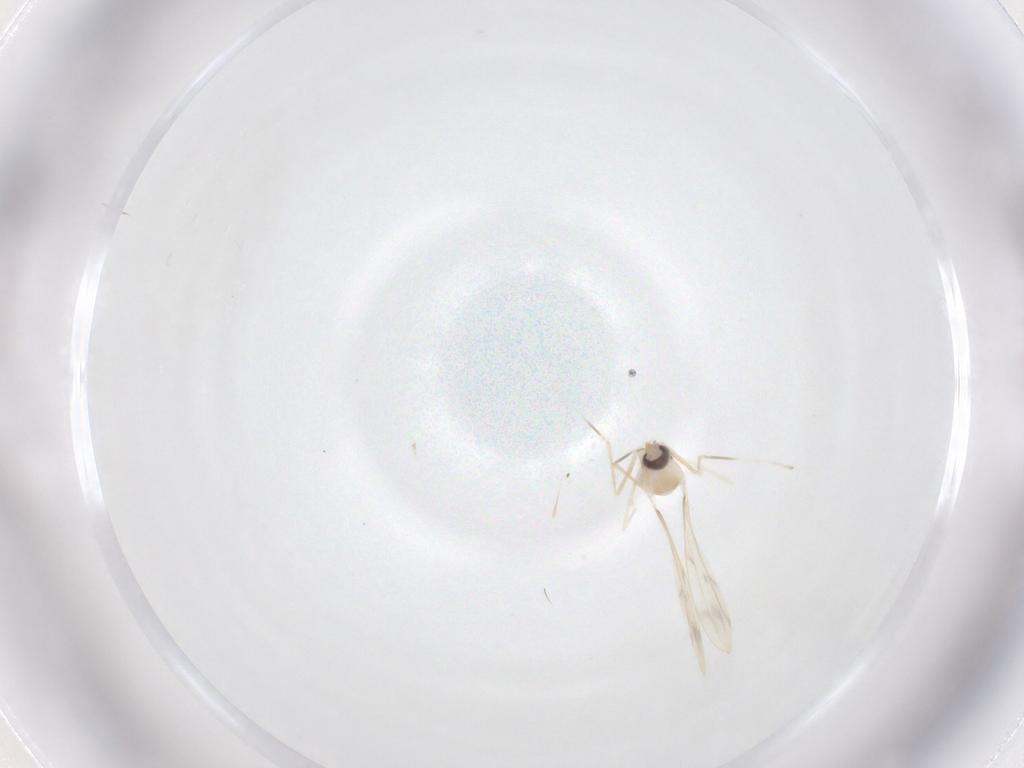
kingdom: Animalia
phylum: Arthropoda
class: Insecta
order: Diptera
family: Cecidomyiidae
